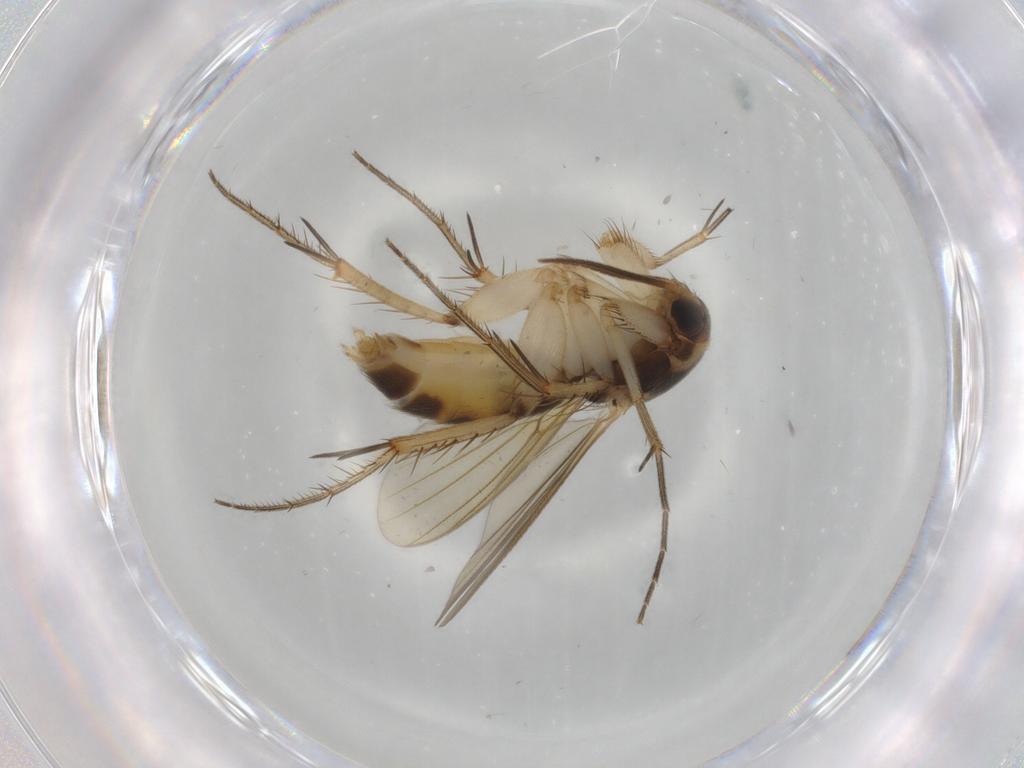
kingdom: Animalia
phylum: Arthropoda
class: Insecta
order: Diptera
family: Mycetophilidae
